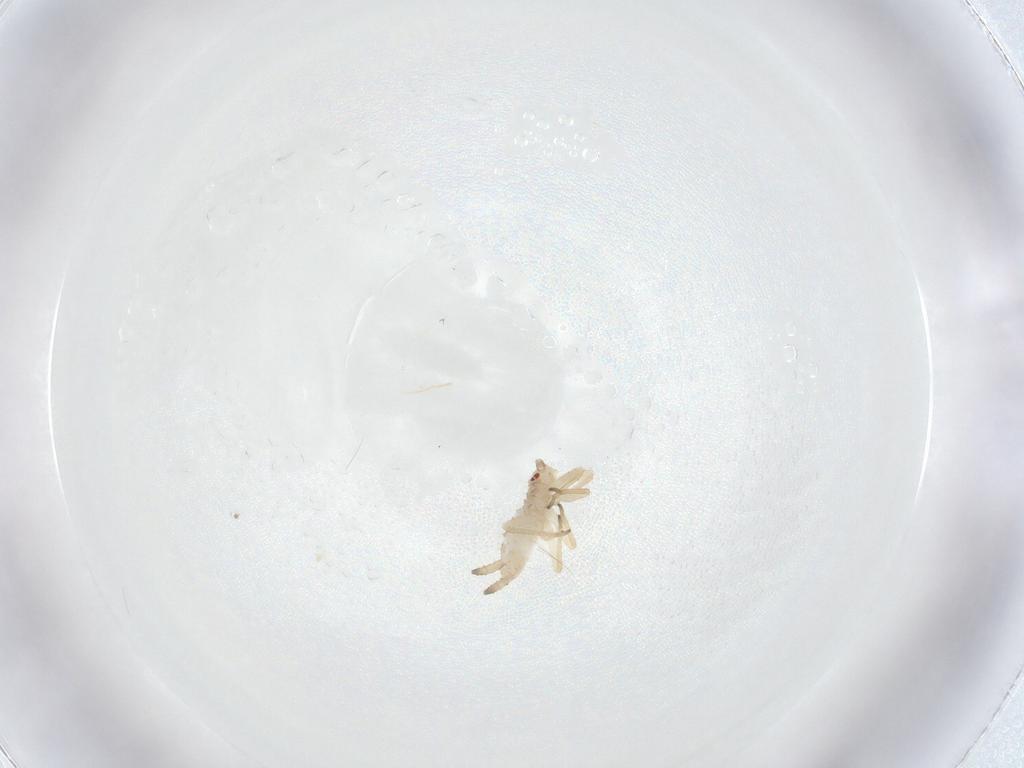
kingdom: Animalia
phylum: Arthropoda
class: Insecta
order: Hemiptera
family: Aphididae
